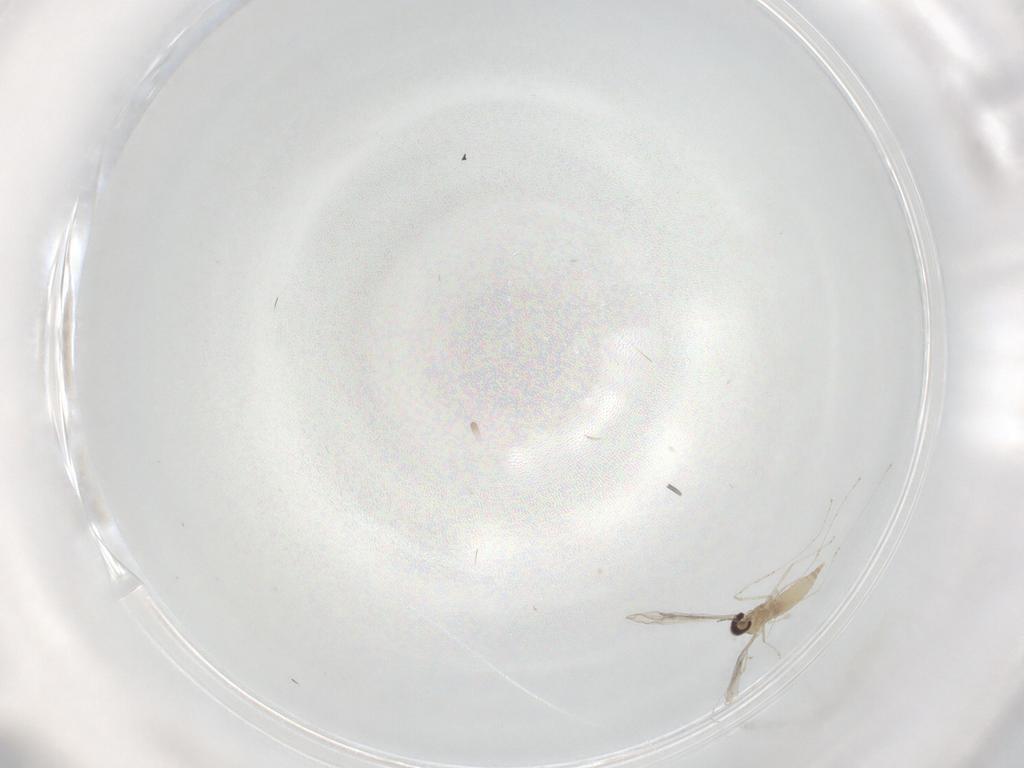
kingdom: Animalia
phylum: Arthropoda
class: Insecta
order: Diptera
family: Cecidomyiidae
